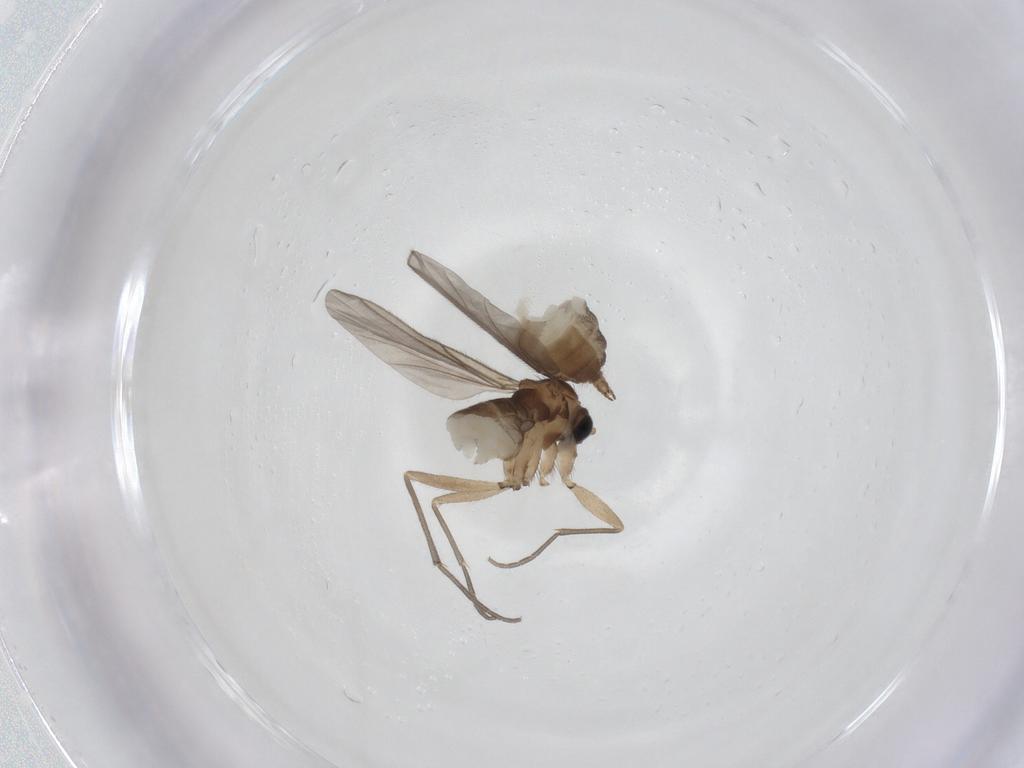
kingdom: Animalia
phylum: Arthropoda
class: Insecta
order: Diptera
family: Sciaridae
